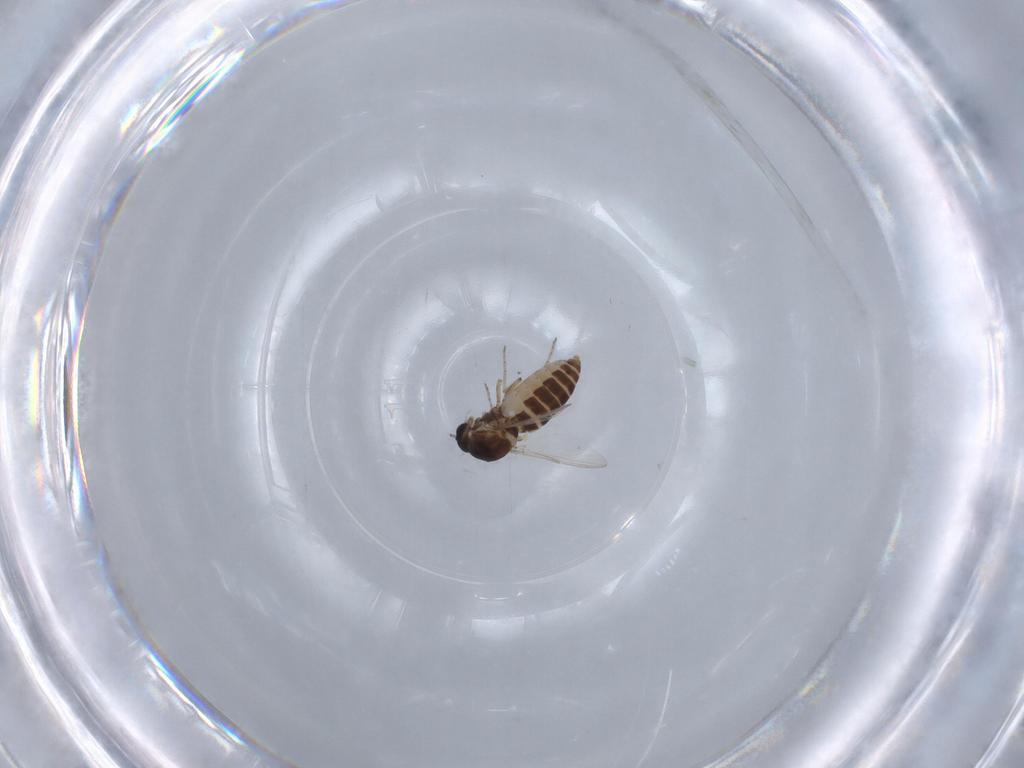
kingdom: Animalia
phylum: Arthropoda
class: Insecta
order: Diptera
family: Ceratopogonidae
